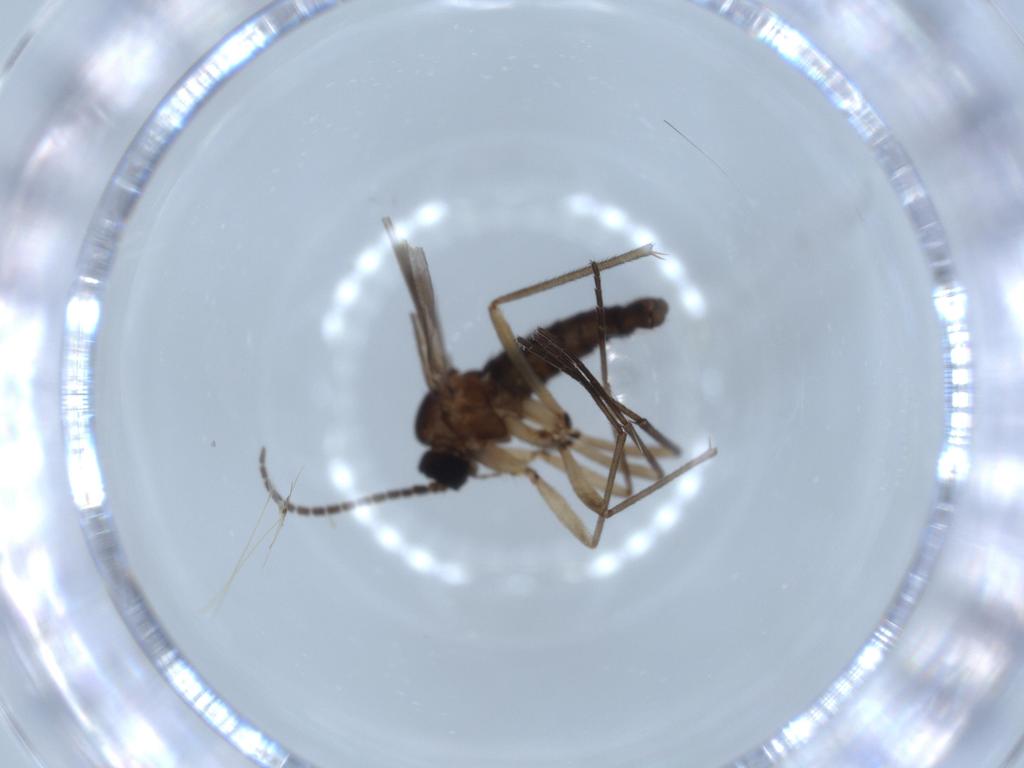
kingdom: Animalia
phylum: Arthropoda
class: Insecta
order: Diptera
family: Sciaridae
